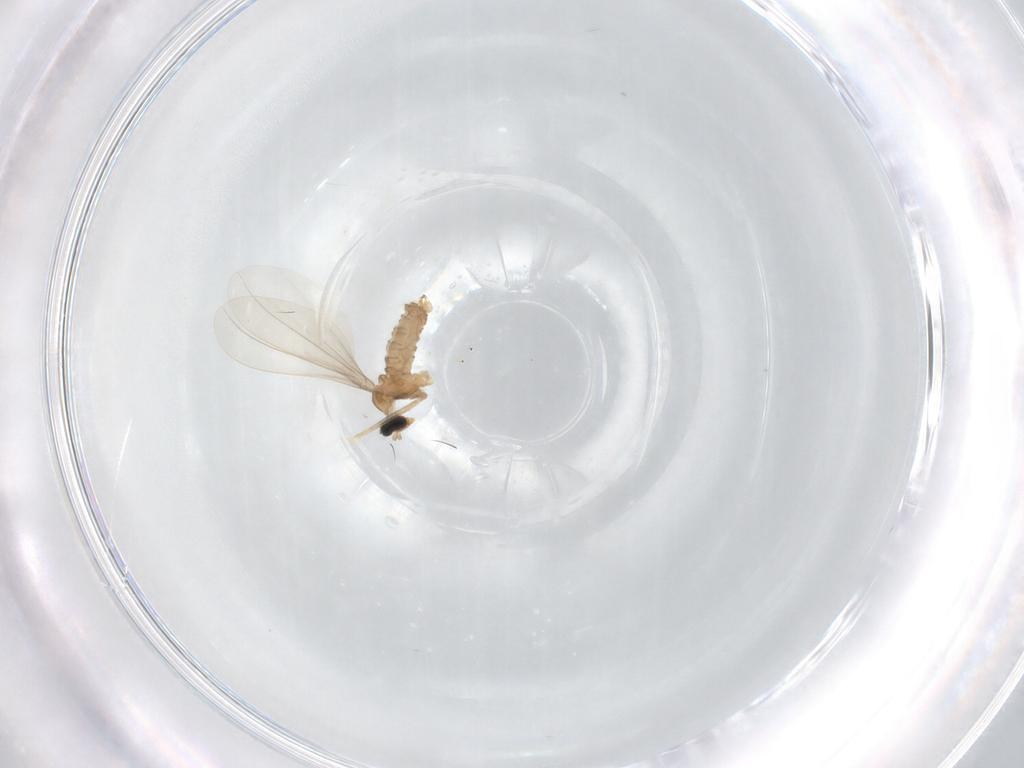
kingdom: Animalia
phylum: Arthropoda
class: Insecta
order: Diptera
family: Cecidomyiidae
